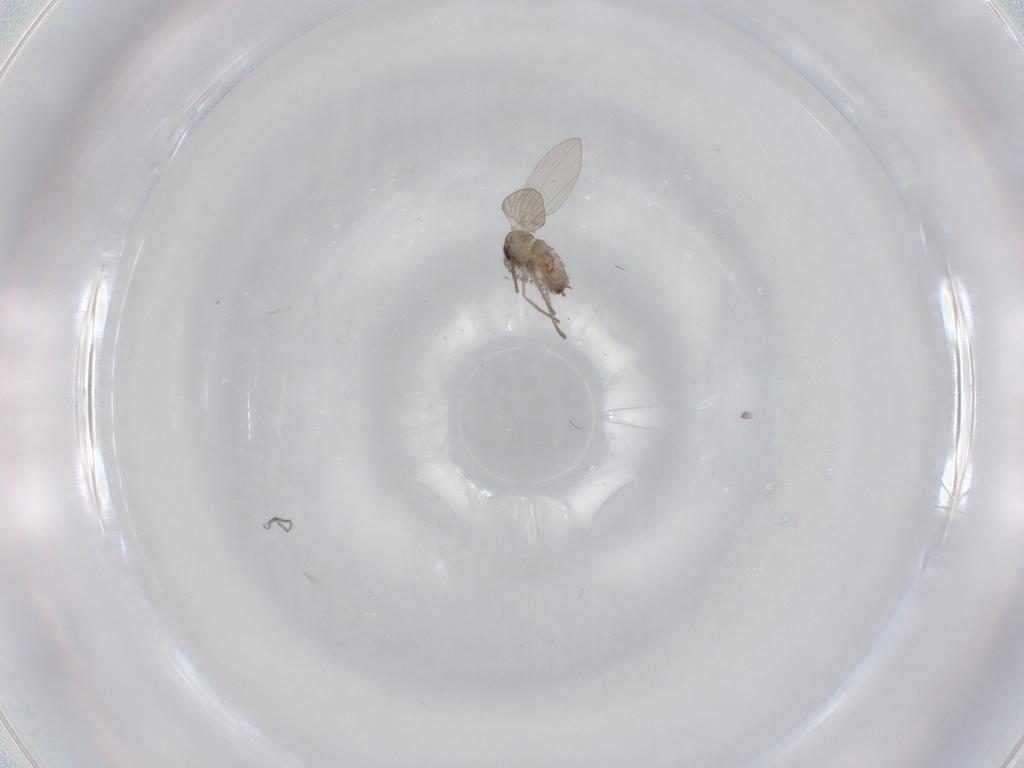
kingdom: Animalia
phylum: Arthropoda
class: Insecta
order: Diptera
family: Psychodidae
